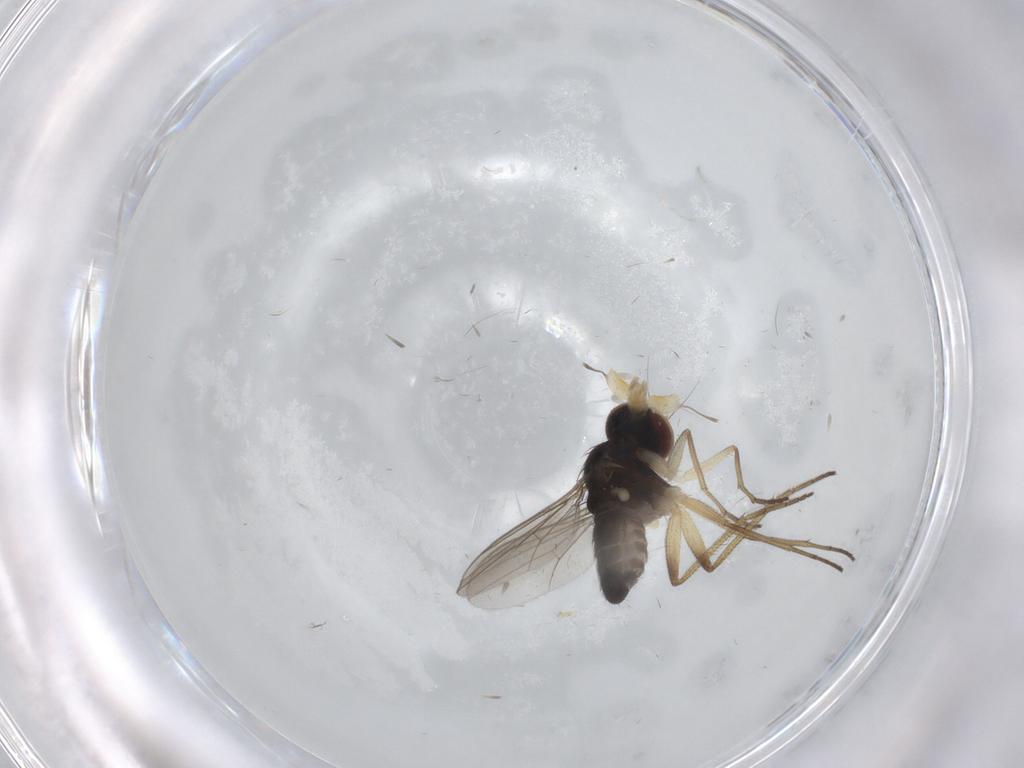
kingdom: Animalia
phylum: Arthropoda
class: Insecta
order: Diptera
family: Dolichopodidae
